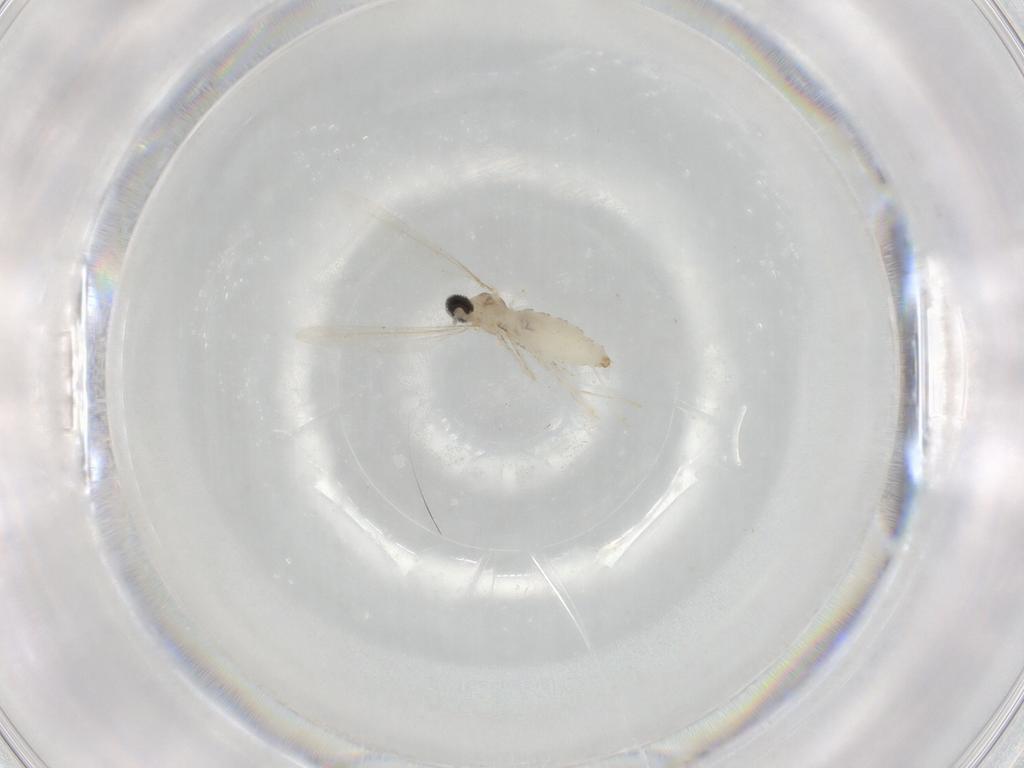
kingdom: Animalia
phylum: Arthropoda
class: Insecta
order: Diptera
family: Cecidomyiidae
